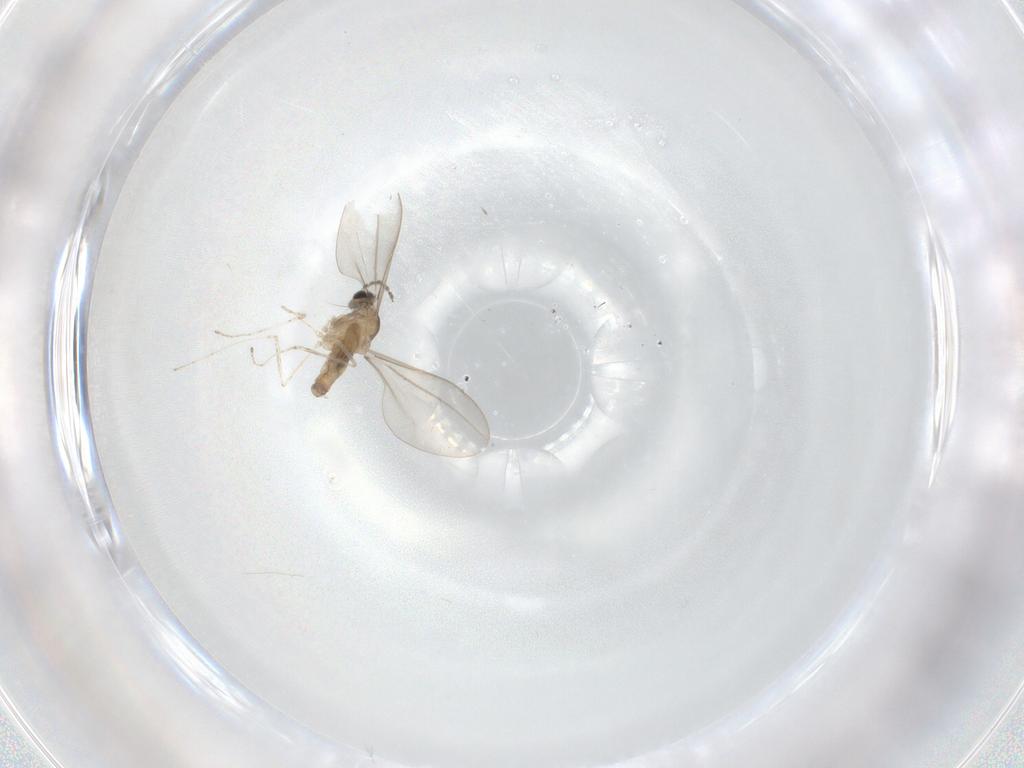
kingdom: Animalia
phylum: Arthropoda
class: Insecta
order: Diptera
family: Cecidomyiidae
